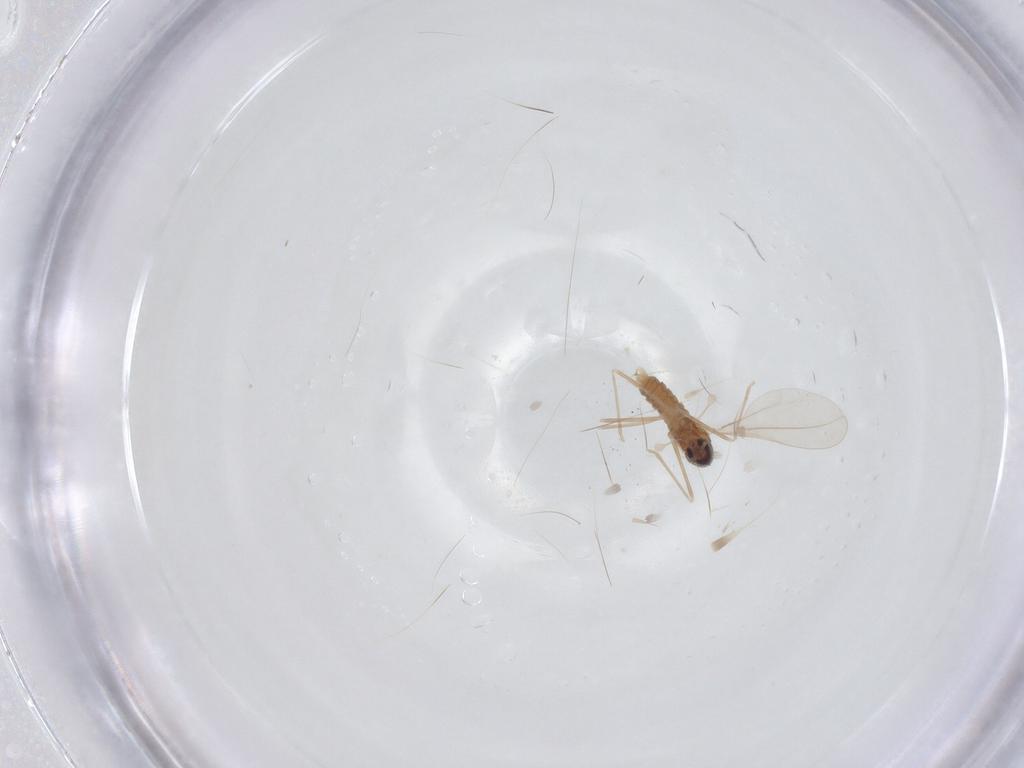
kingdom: Animalia
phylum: Arthropoda
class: Insecta
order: Diptera
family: Cecidomyiidae
